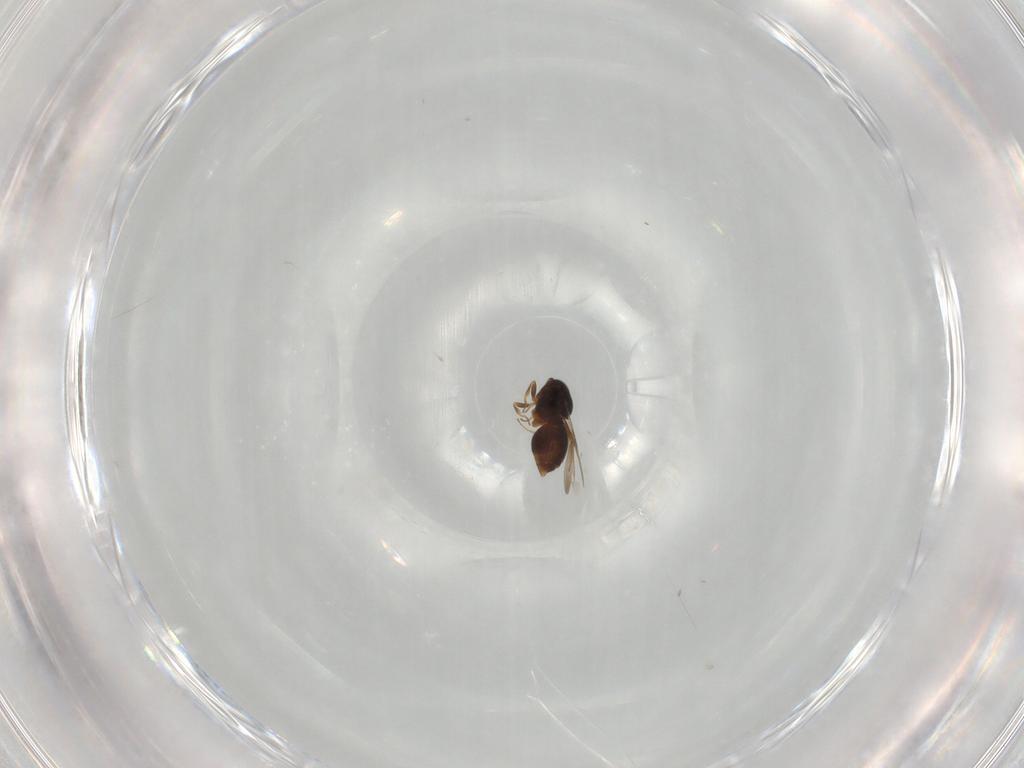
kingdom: Animalia
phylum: Arthropoda
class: Insecta
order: Hymenoptera
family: Ceraphronidae
